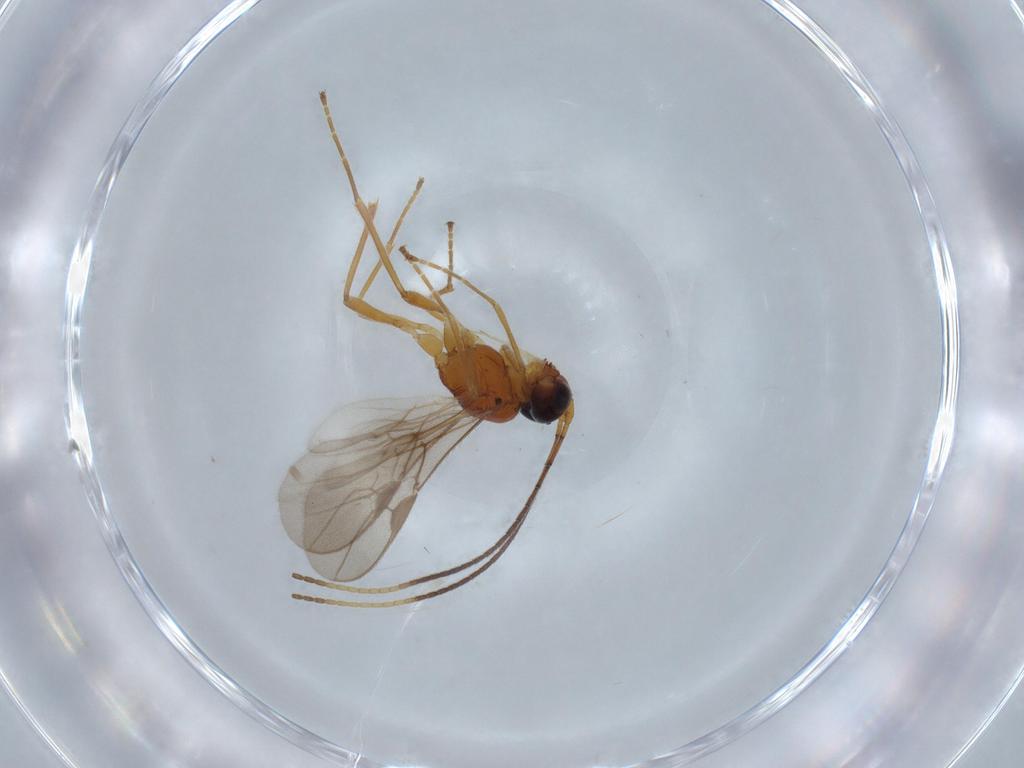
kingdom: Animalia
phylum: Arthropoda
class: Insecta
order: Hymenoptera
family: Braconidae
